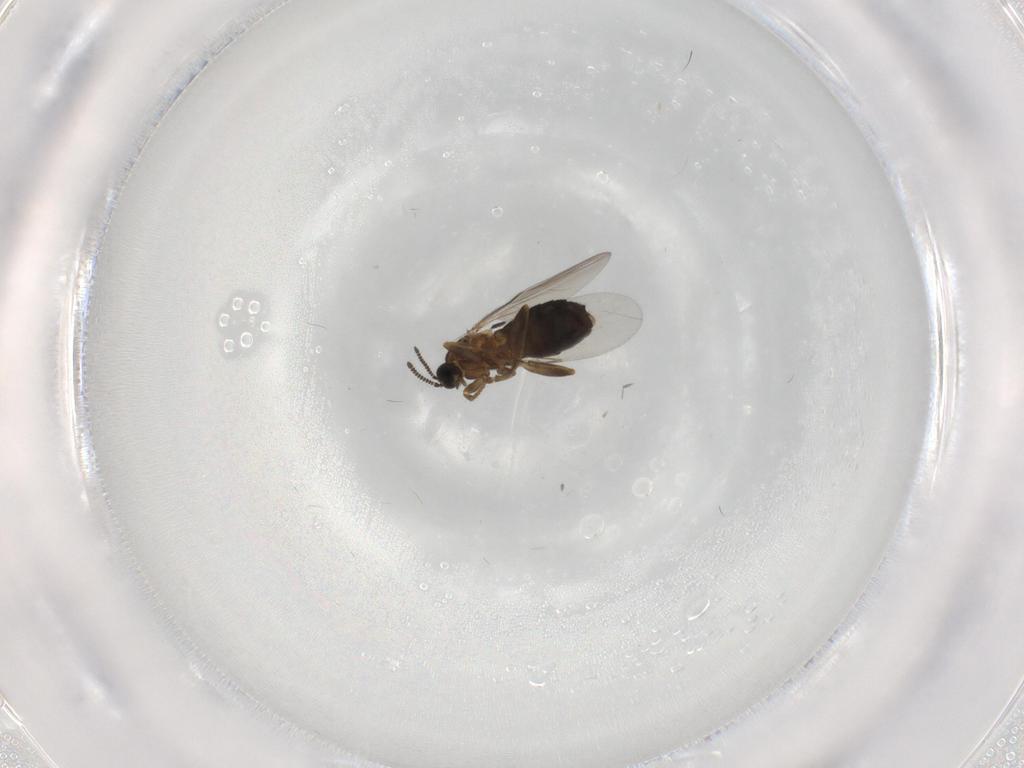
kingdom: Animalia
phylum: Arthropoda
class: Insecta
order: Diptera
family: Scatopsidae
